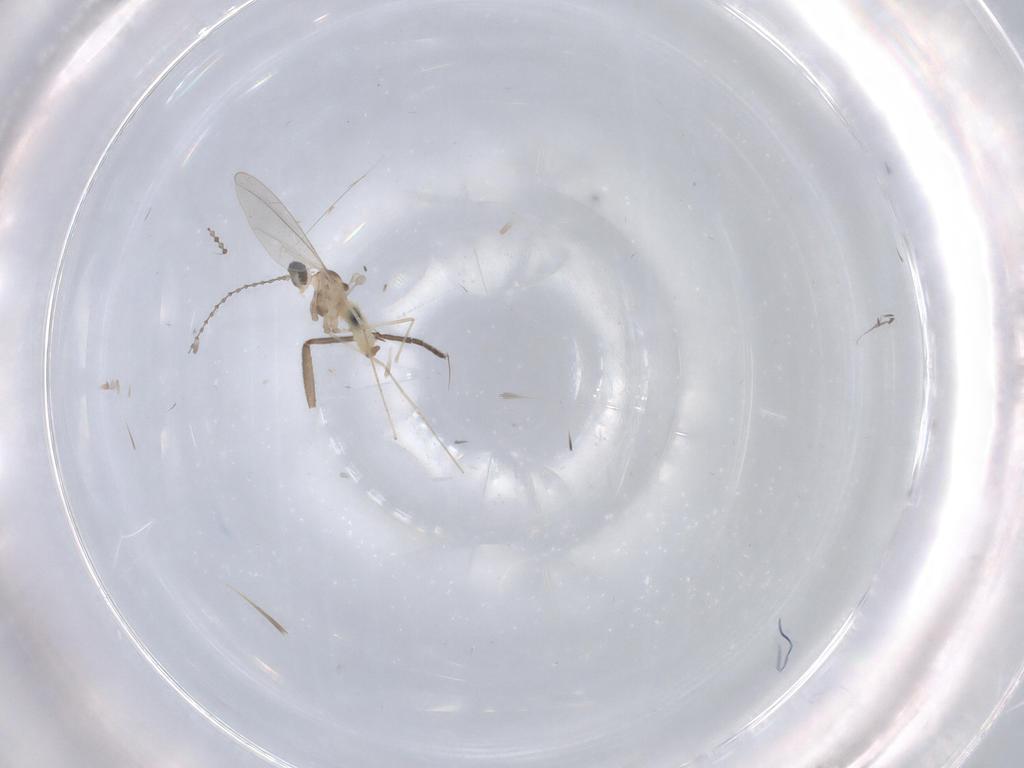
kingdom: Animalia
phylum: Arthropoda
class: Insecta
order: Diptera
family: Cecidomyiidae
